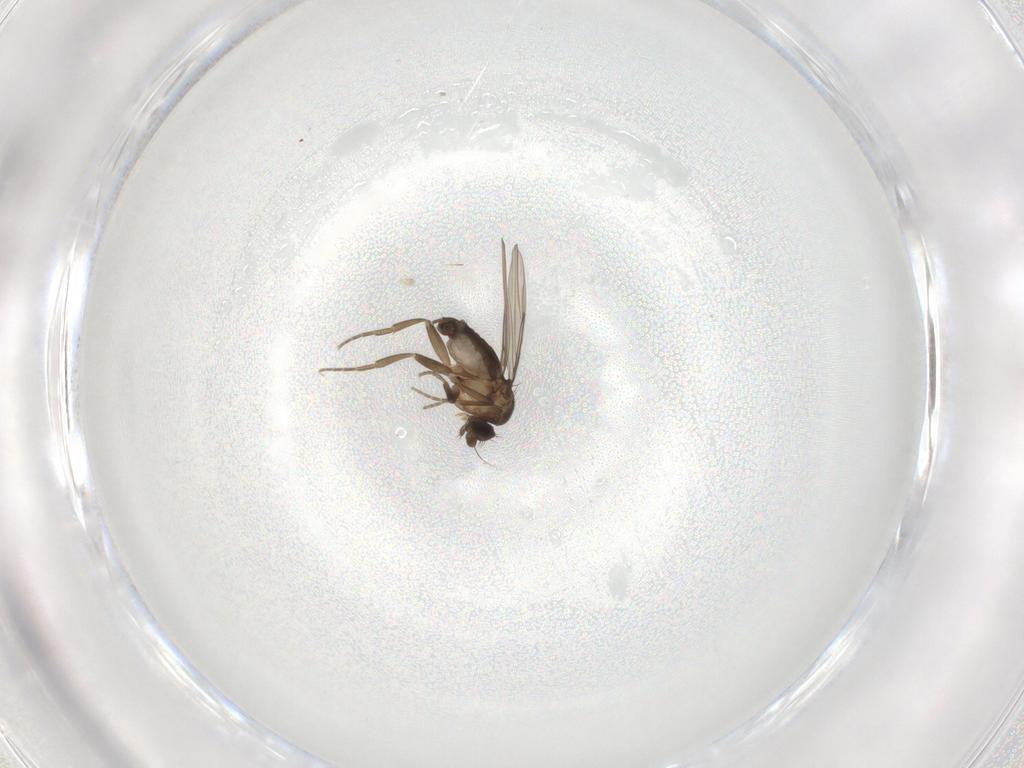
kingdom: Animalia
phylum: Arthropoda
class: Insecta
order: Diptera
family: Phoridae
